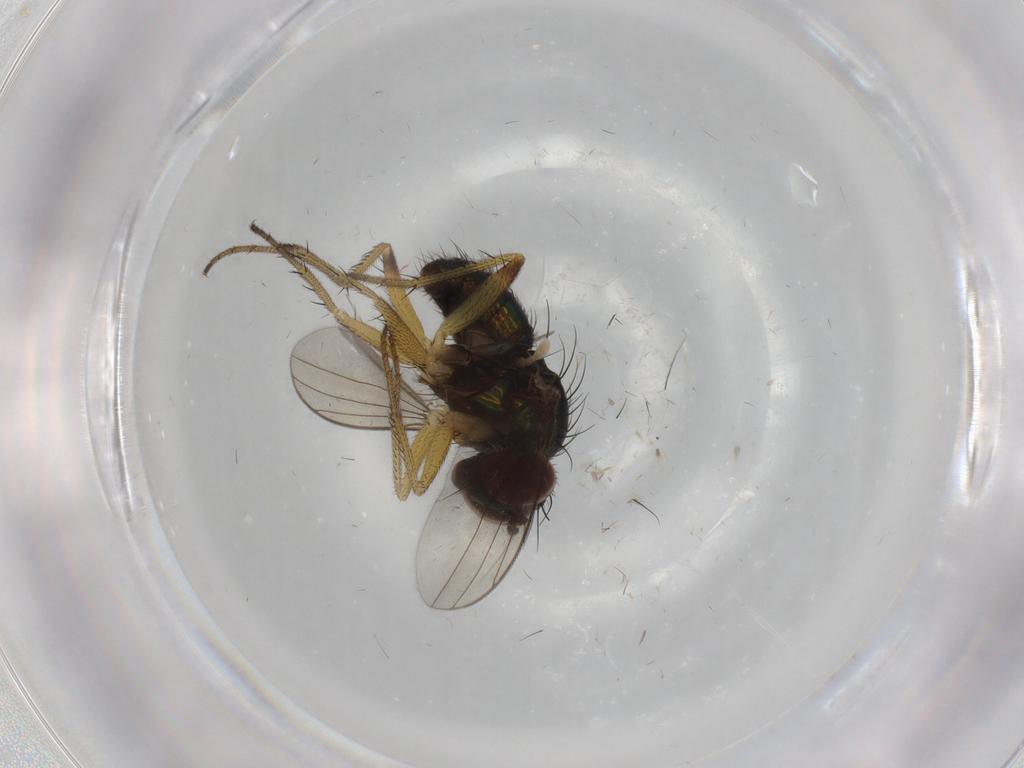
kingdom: Animalia
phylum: Arthropoda
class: Insecta
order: Diptera
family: Dolichopodidae
